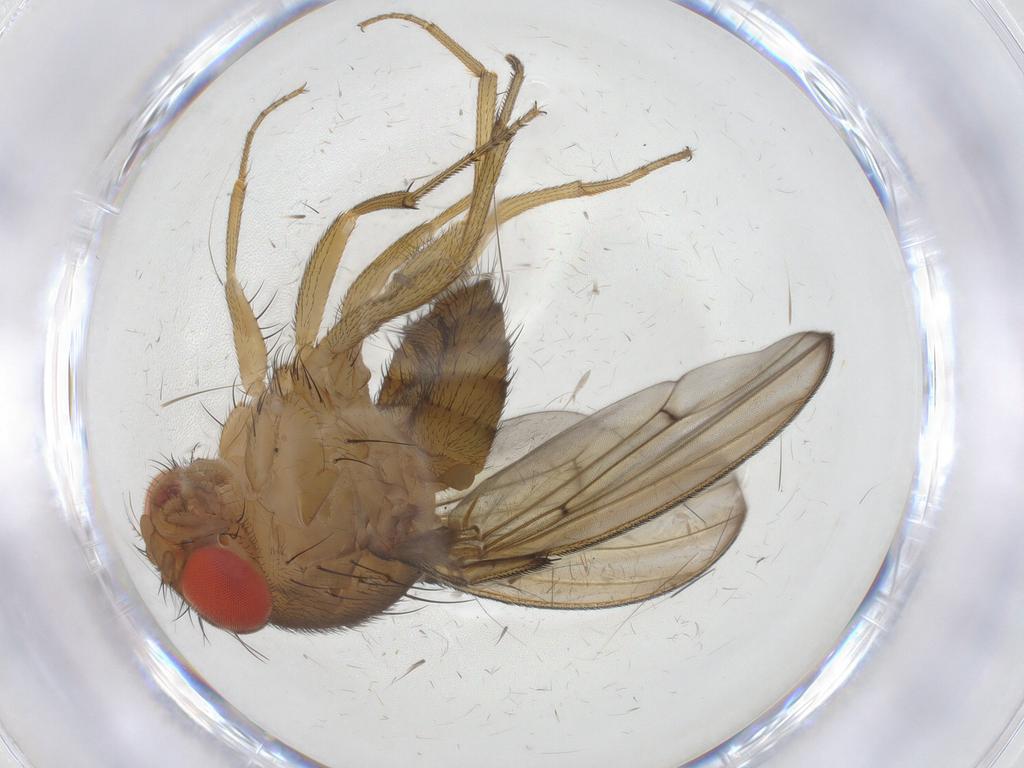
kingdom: Animalia
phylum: Arthropoda
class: Insecta
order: Diptera
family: Drosophilidae
